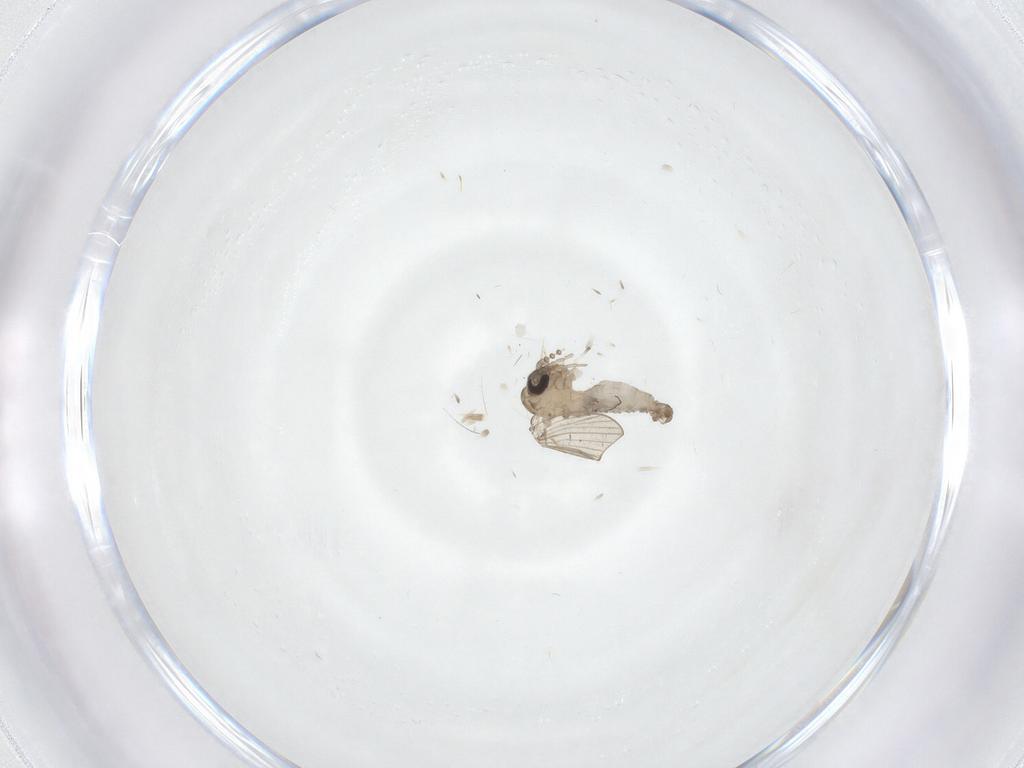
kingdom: Animalia
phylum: Arthropoda
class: Insecta
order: Diptera
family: Psychodidae
